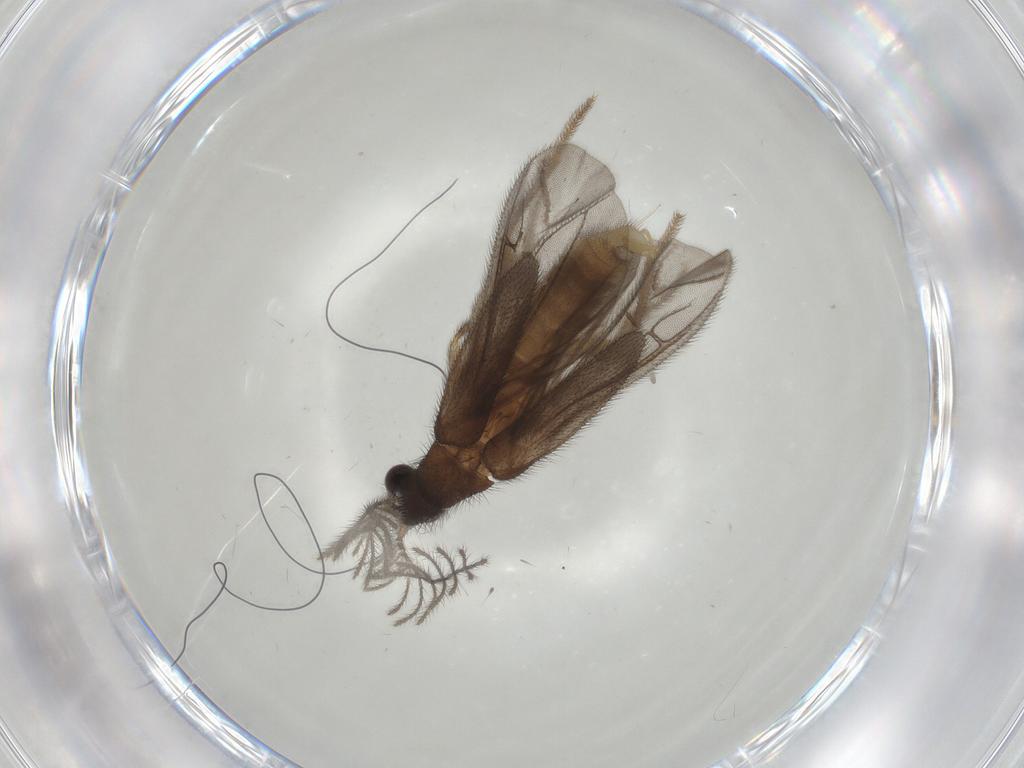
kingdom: Animalia
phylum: Arthropoda
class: Insecta
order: Coleoptera
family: Phengodidae
